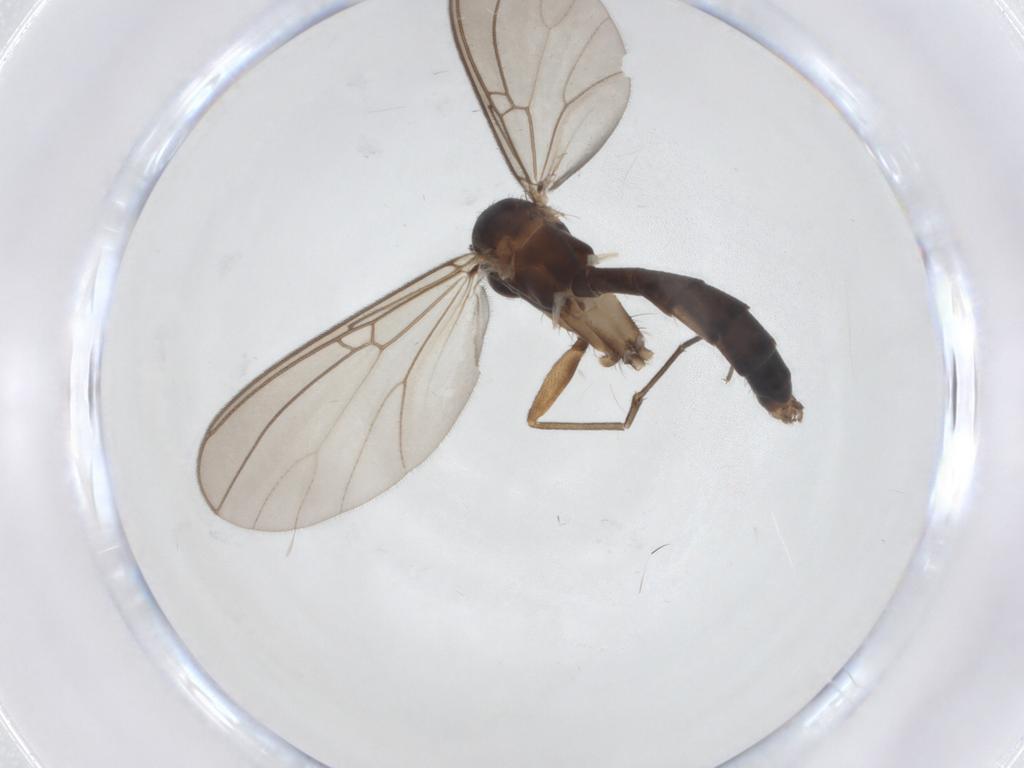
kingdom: Animalia
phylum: Arthropoda
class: Insecta
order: Diptera
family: Mycetophilidae
